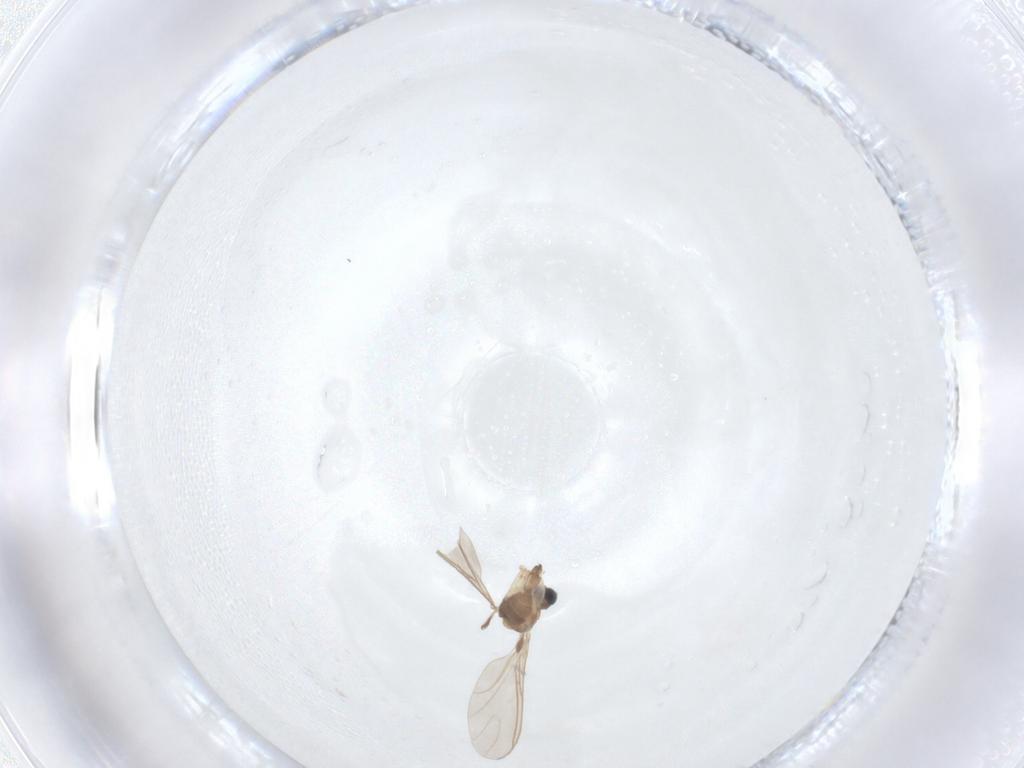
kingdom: Animalia
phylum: Arthropoda
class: Insecta
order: Diptera
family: Sciaridae
